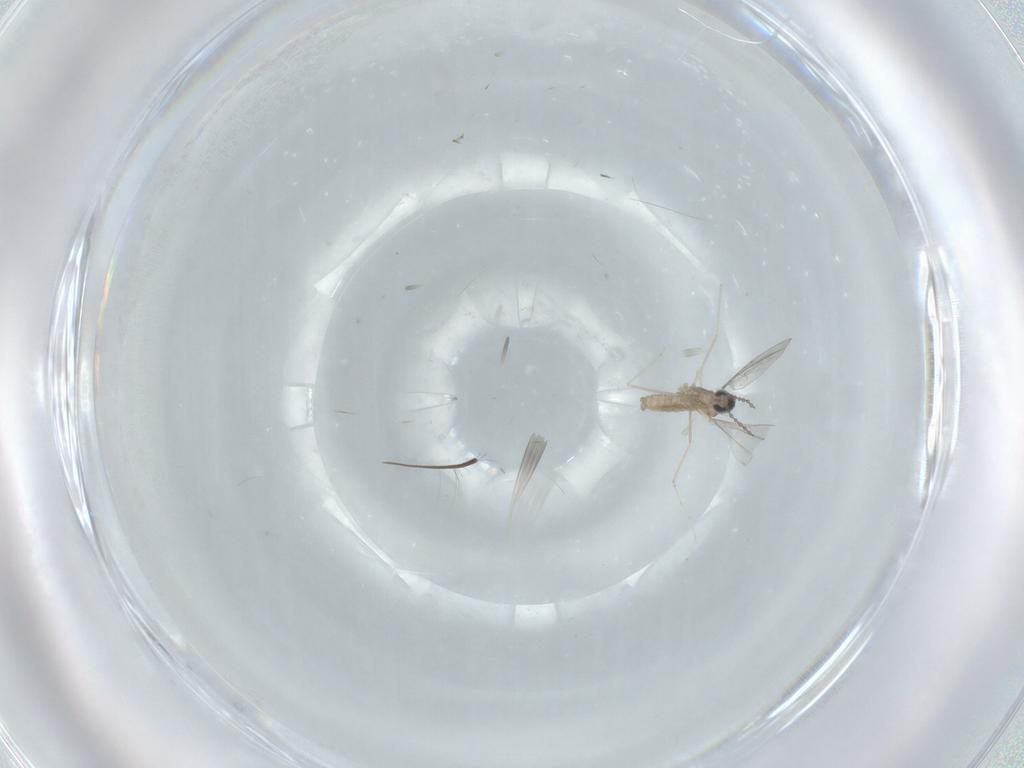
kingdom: Animalia
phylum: Arthropoda
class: Insecta
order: Diptera
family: Cecidomyiidae
